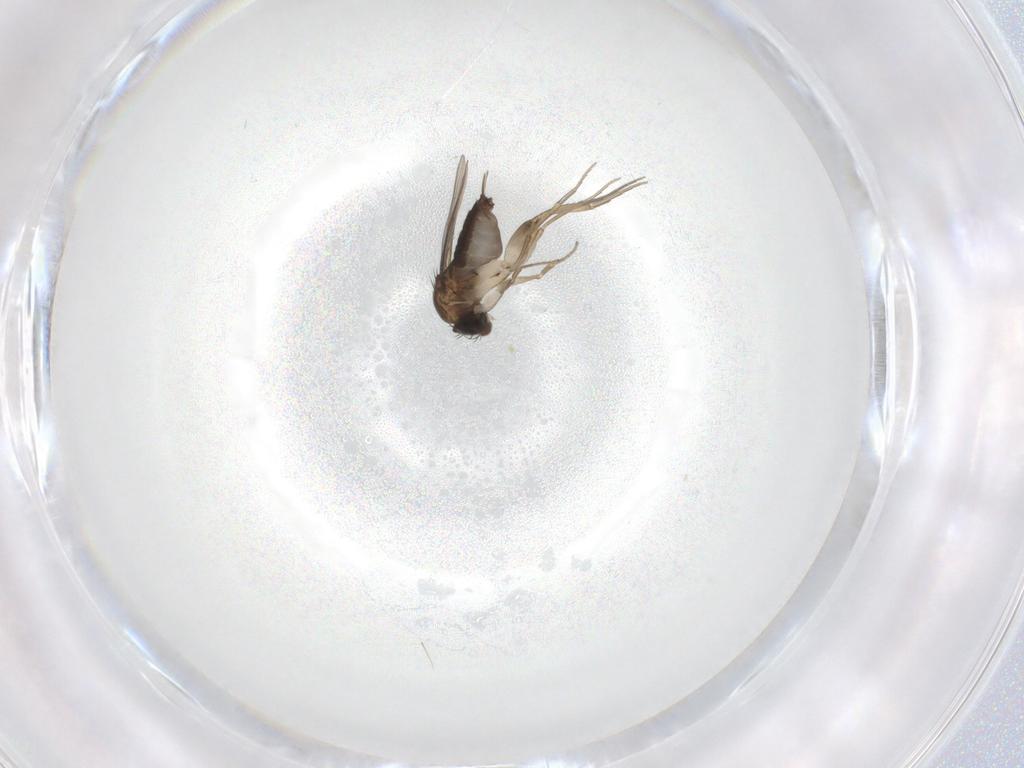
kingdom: Animalia
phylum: Arthropoda
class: Insecta
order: Diptera
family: Phoridae
